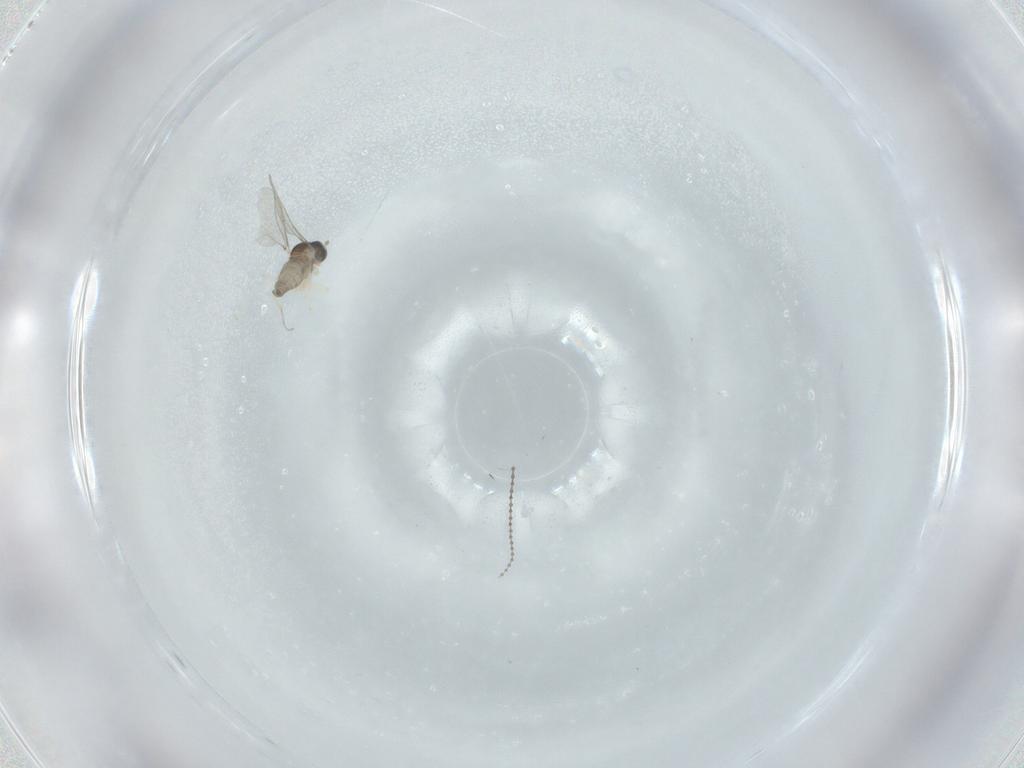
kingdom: Animalia
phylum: Arthropoda
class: Insecta
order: Diptera
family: Cecidomyiidae
